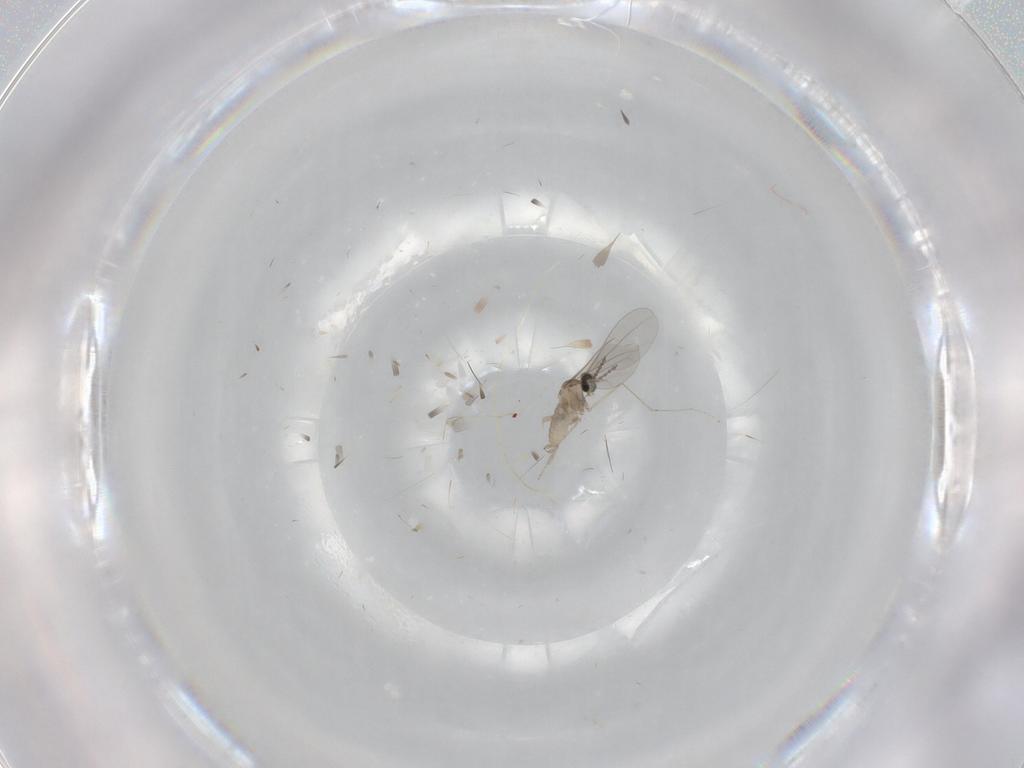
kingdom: Animalia
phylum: Arthropoda
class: Insecta
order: Diptera
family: Cecidomyiidae
